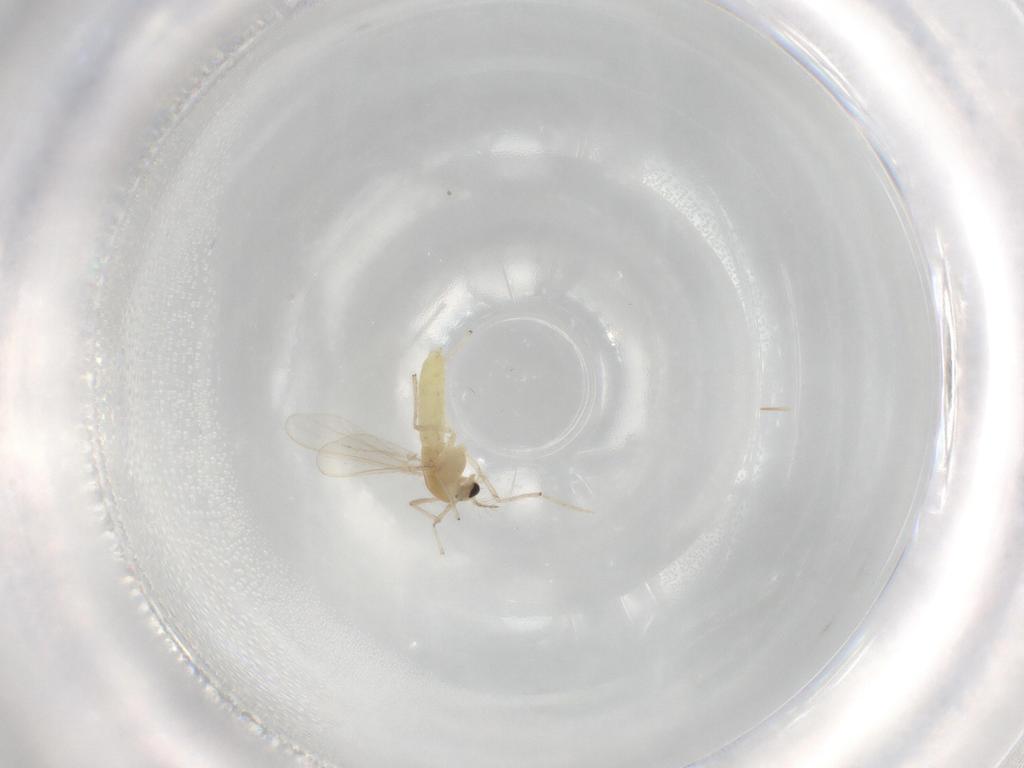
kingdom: Animalia
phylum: Arthropoda
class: Insecta
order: Diptera
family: Chironomidae
